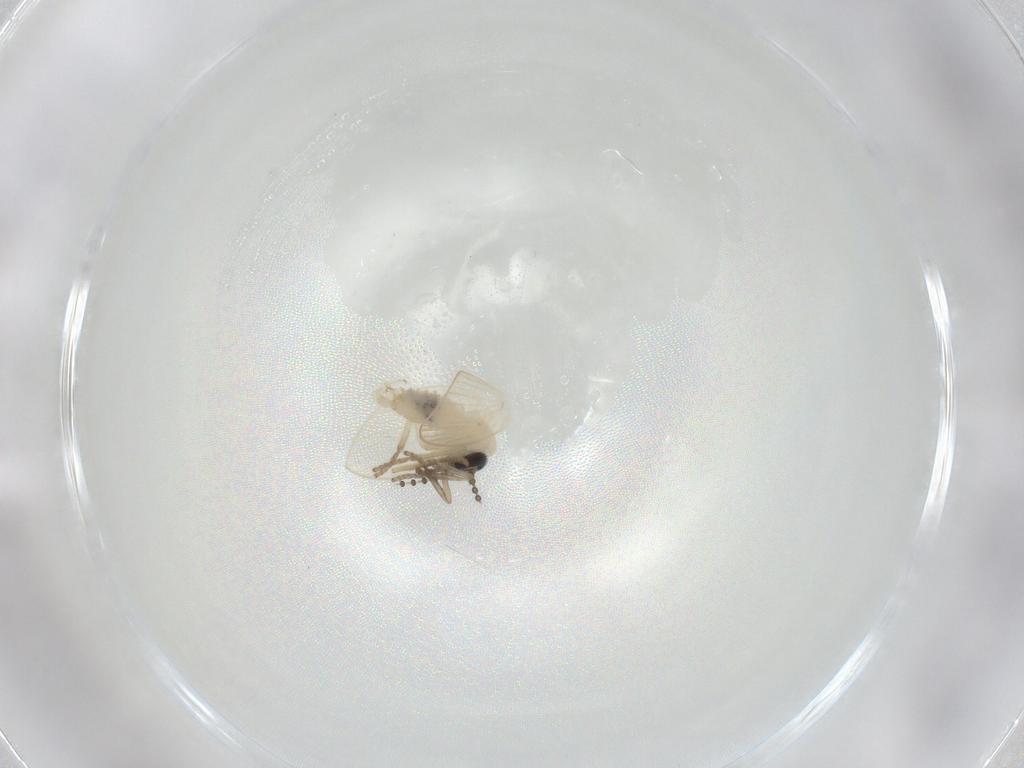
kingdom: Animalia
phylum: Arthropoda
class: Insecta
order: Diptera
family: Psychodidae
